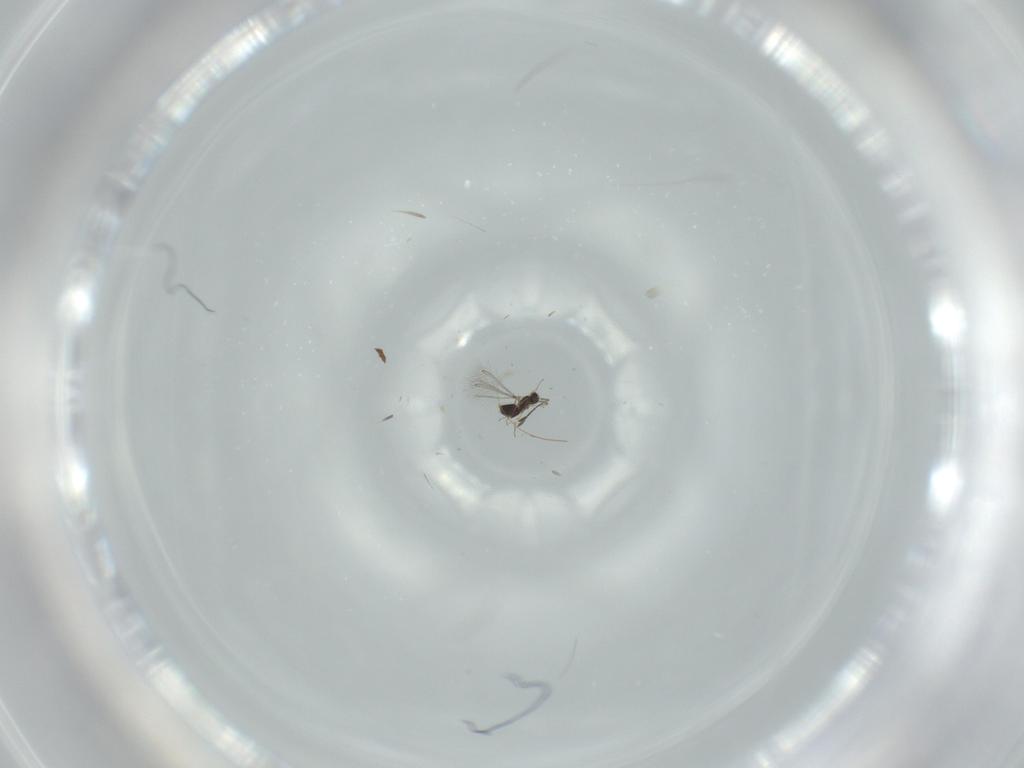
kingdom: Animalia
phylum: Arthropoda
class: Insecta
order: Hymenoptera
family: Mymaridae
